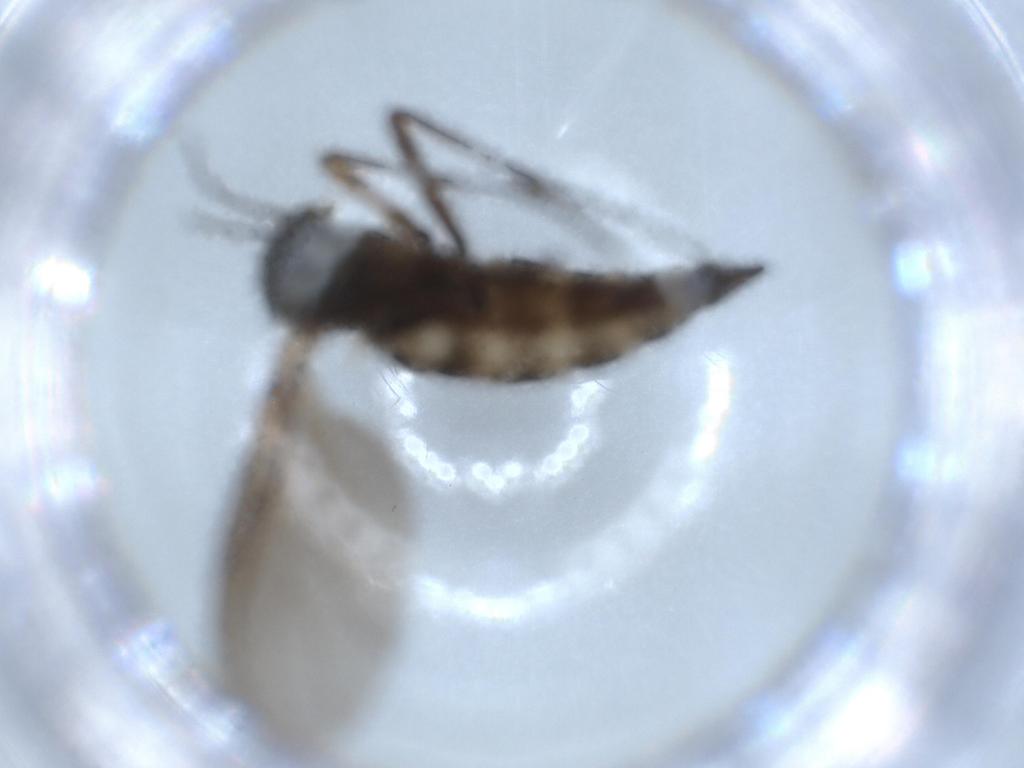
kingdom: Animalia
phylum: Arthropoda
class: Insecta
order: Diptera
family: Sciaridae
